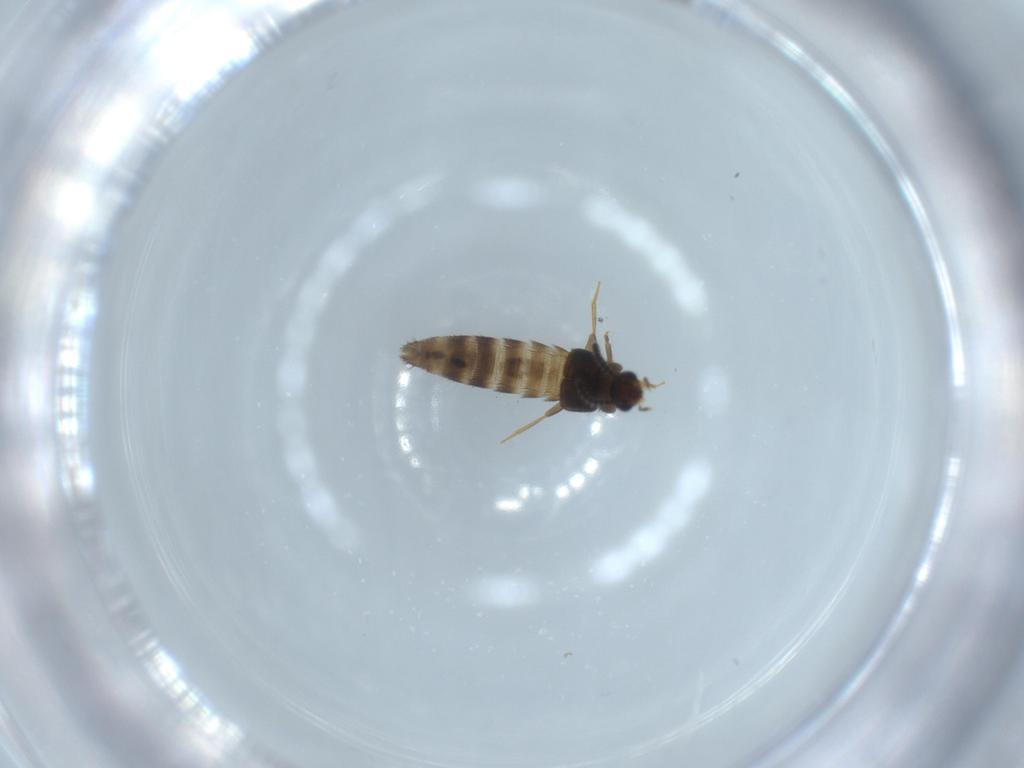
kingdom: Animalia
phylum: Arthropoda
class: Insecta
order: Coleoptera
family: Staphylinidae
